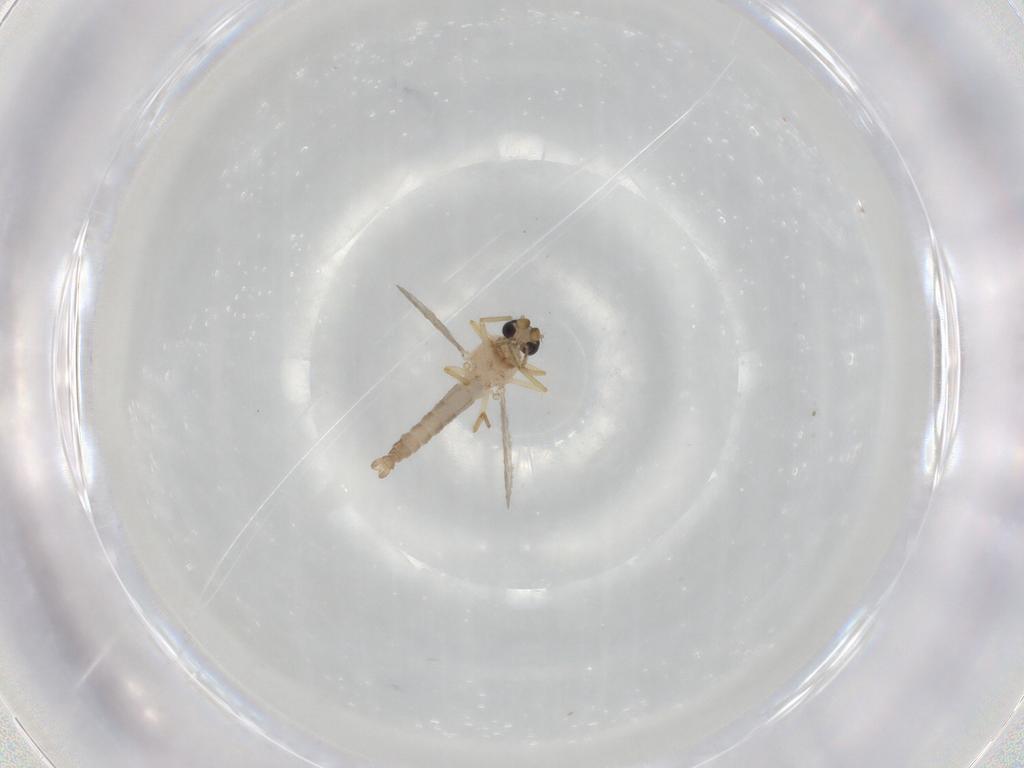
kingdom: Animalia
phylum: Arthropoda
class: Insecta
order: Diptera
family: Ceratopogonidae
